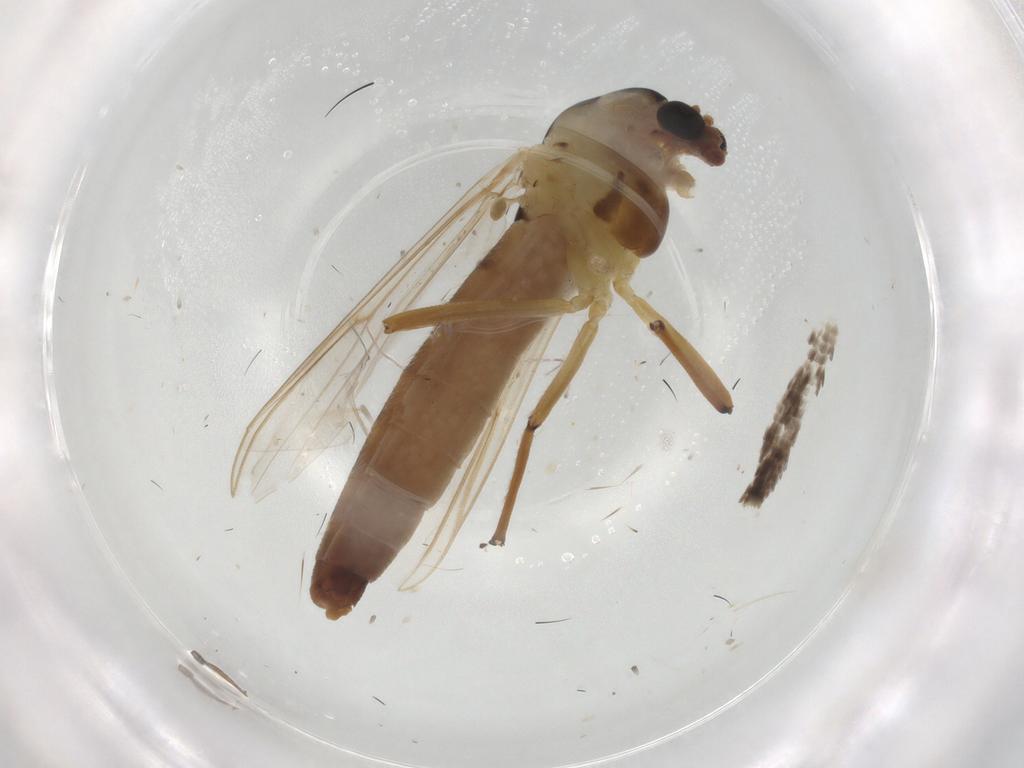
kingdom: Animalia
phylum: Arthropoda
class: Insecta
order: Diptera
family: Chironomidae
